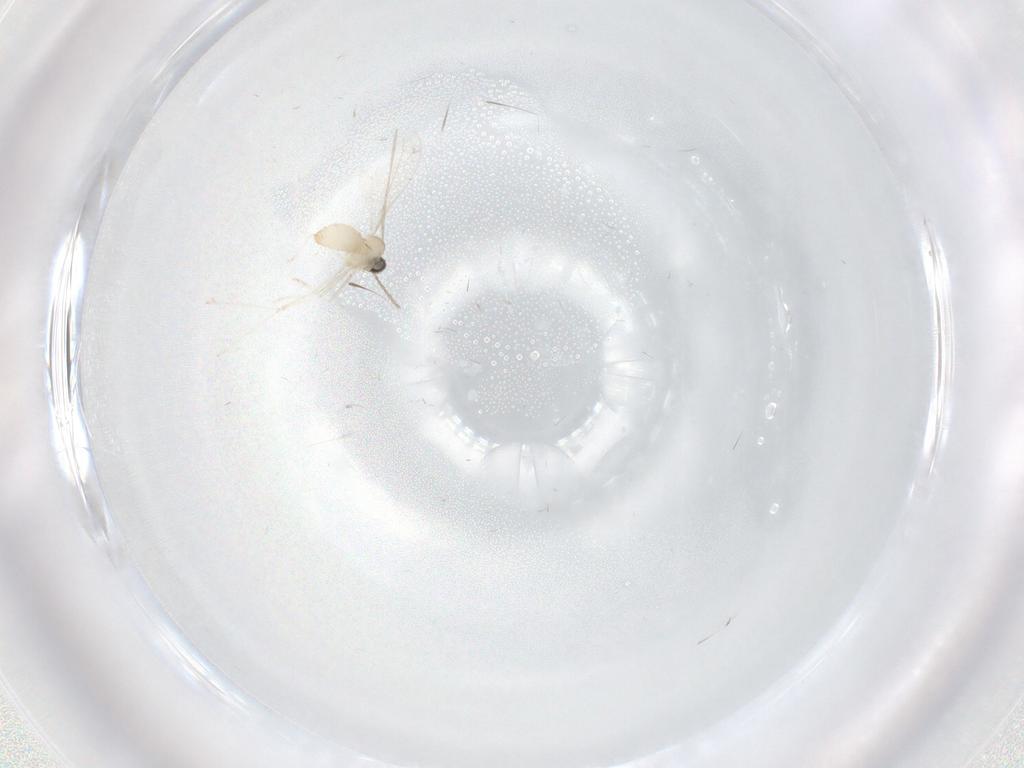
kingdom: Animalia
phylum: Arthropoda
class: Insecta
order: Diptera
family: Cecidomyiidae
